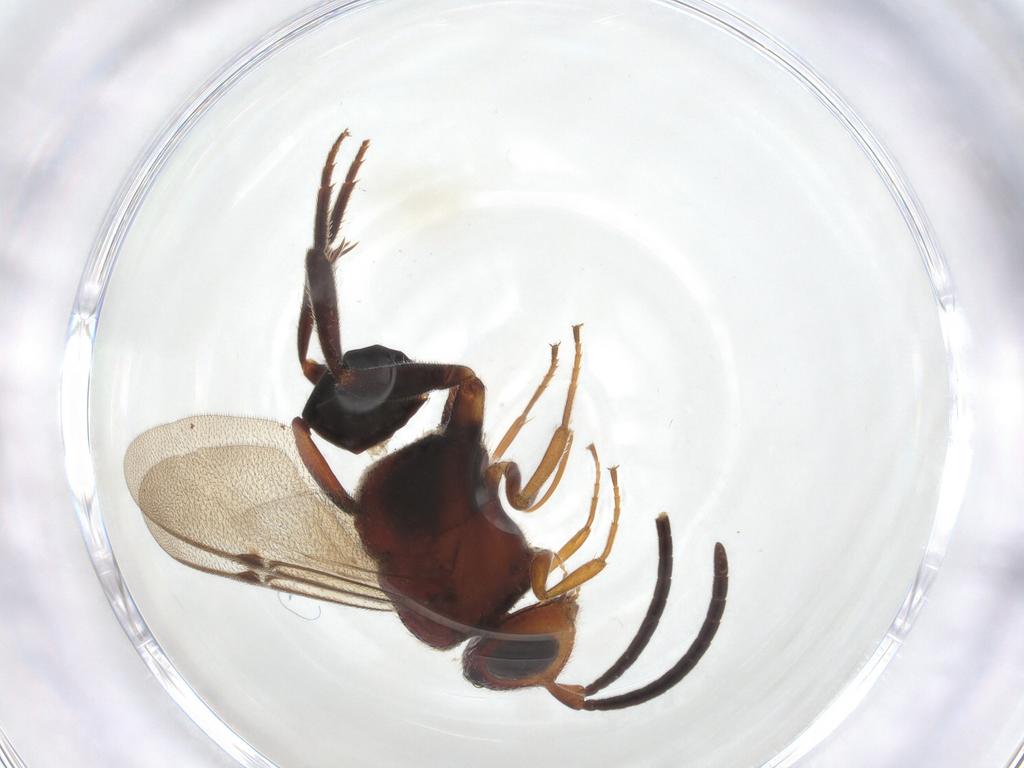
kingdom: Animalia
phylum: Arthropoda
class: Insecta
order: Hymenoptera
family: Evaniidae
